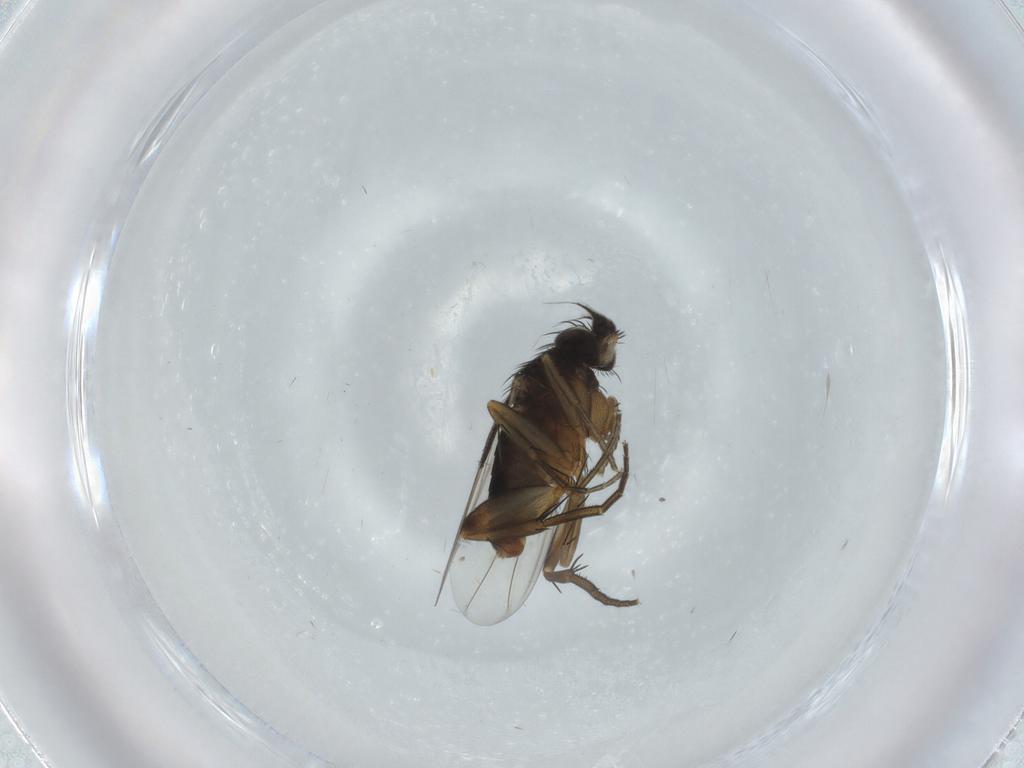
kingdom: Animalia
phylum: Arthropoda
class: Insecta
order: Diptera
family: Phoridae
